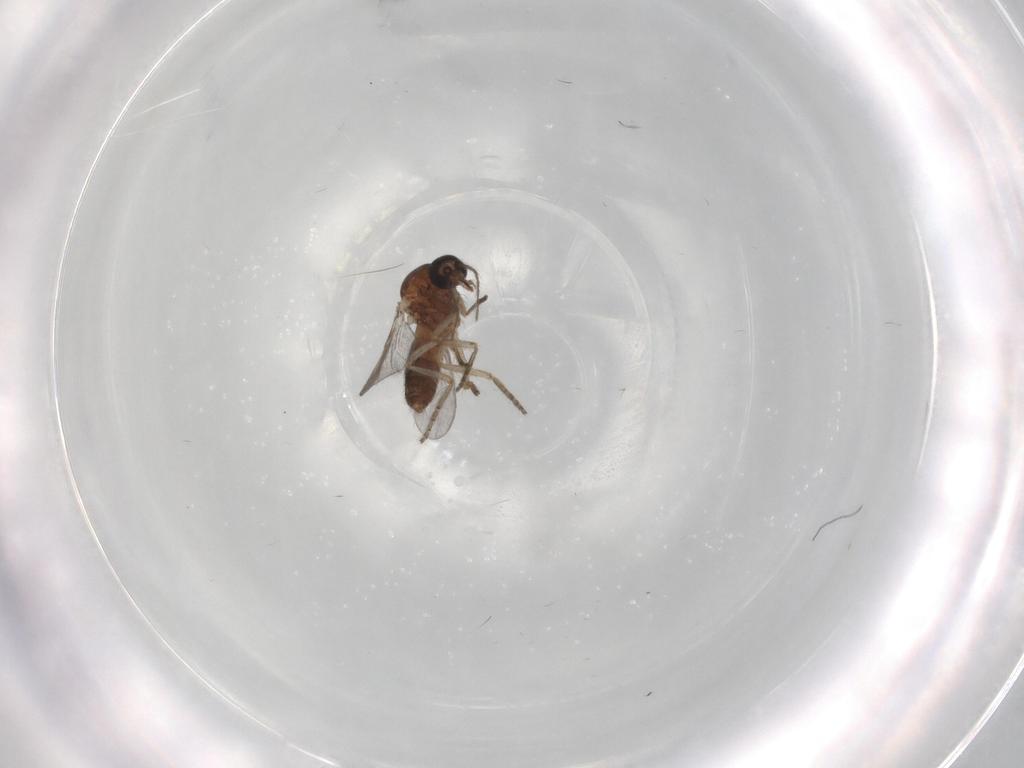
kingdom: Animalia
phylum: Arthropoda
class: Insecta
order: Diptera
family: Ceratopogonidae
